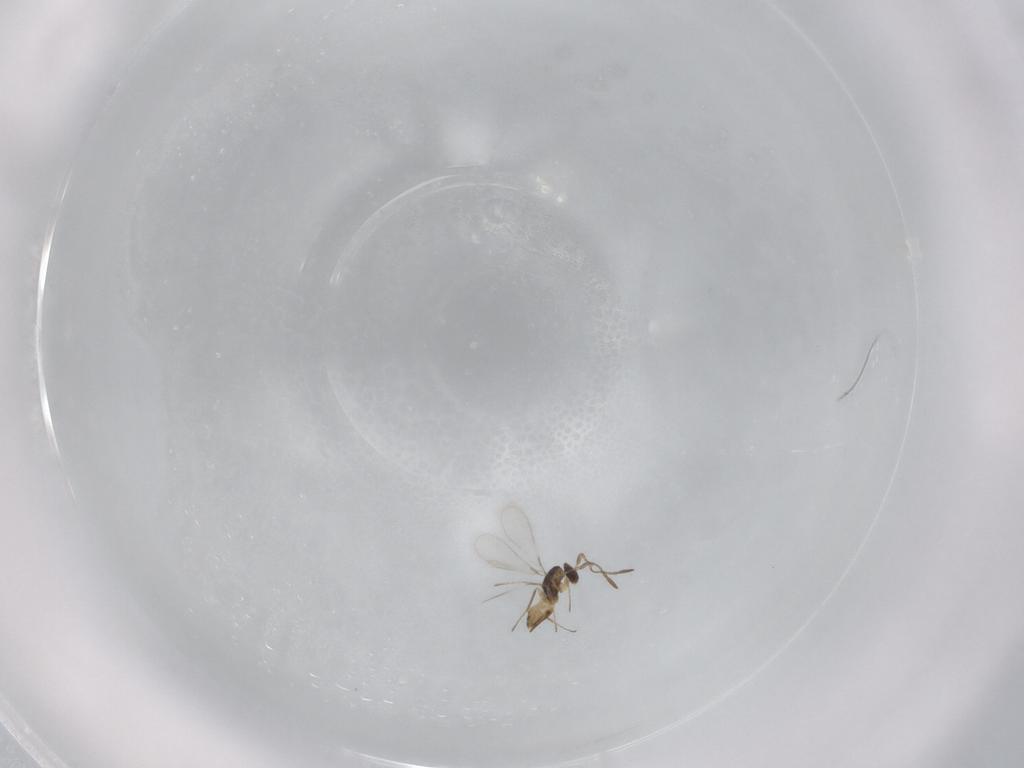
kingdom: Animalia
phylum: Arthropoda
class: Insecta
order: Hymenoptera
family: Mymaridae
